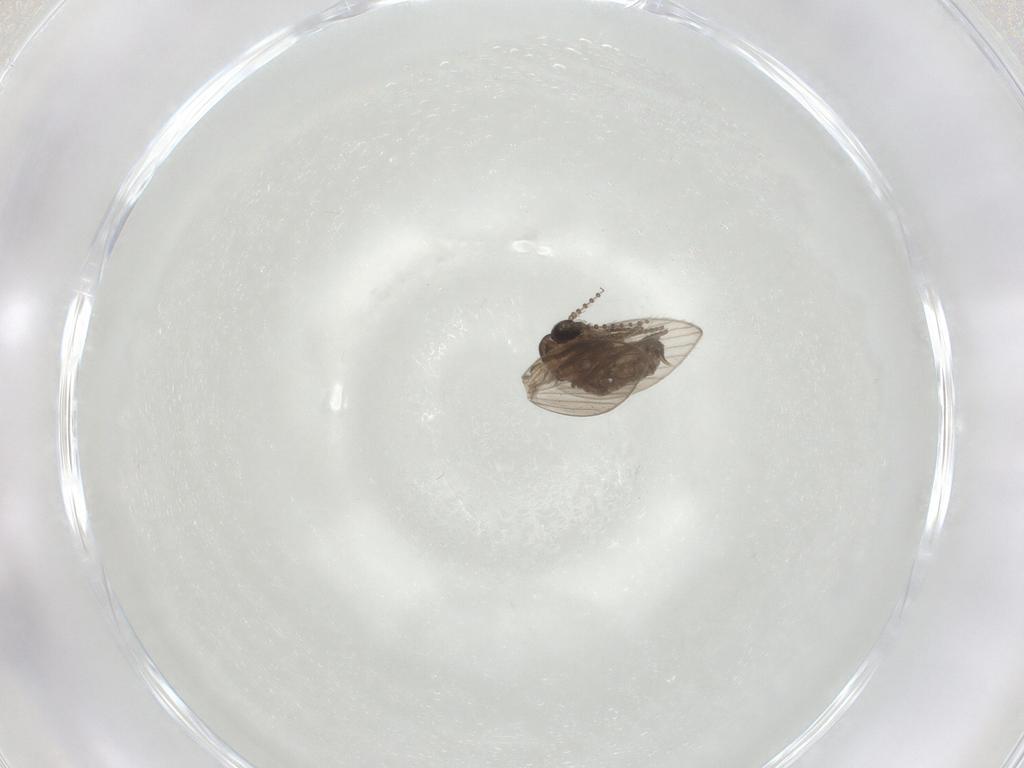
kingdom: Animalia
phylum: Arthropoda
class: Insecta
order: Diptera
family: Psychodidae
